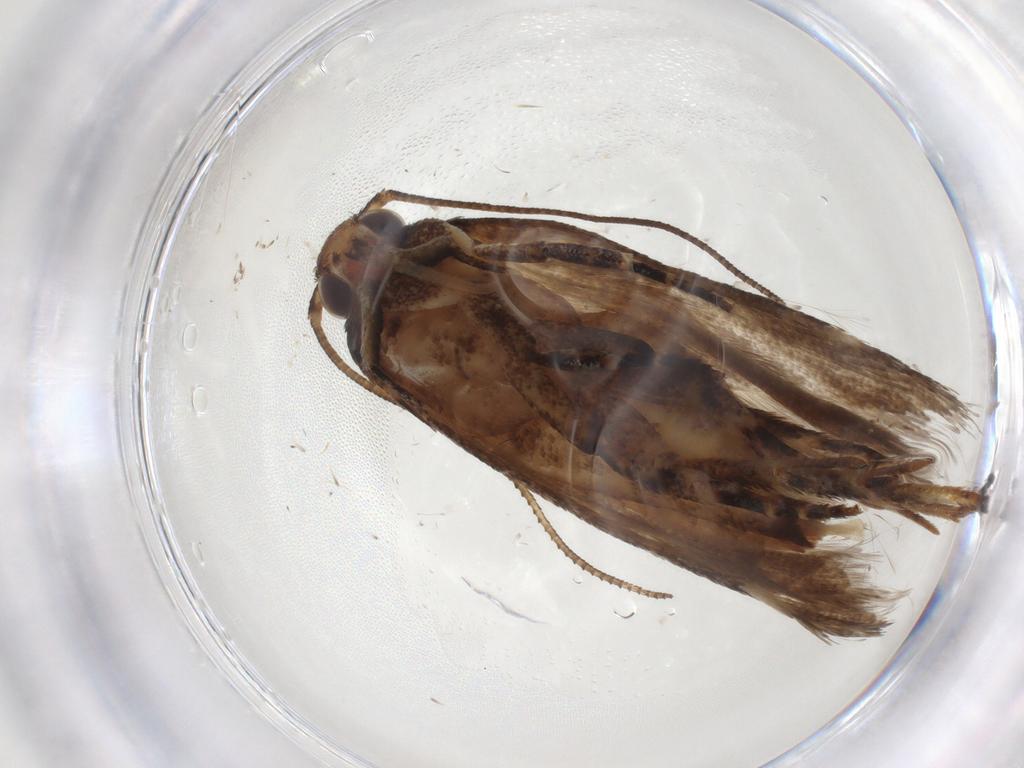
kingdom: Animalia
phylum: Arthropoda
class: Insecta
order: Lepidoptera
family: Gelechiidae
